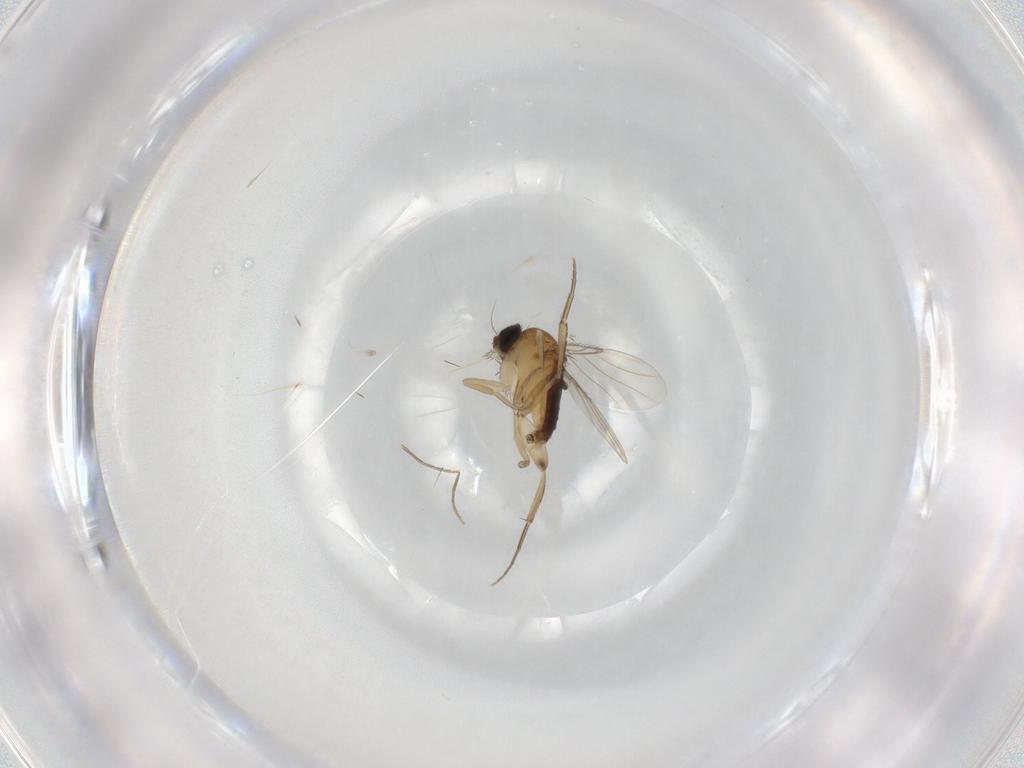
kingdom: Animalia
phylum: Arthropoda
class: Insecta
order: Diptera
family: Phoridae
